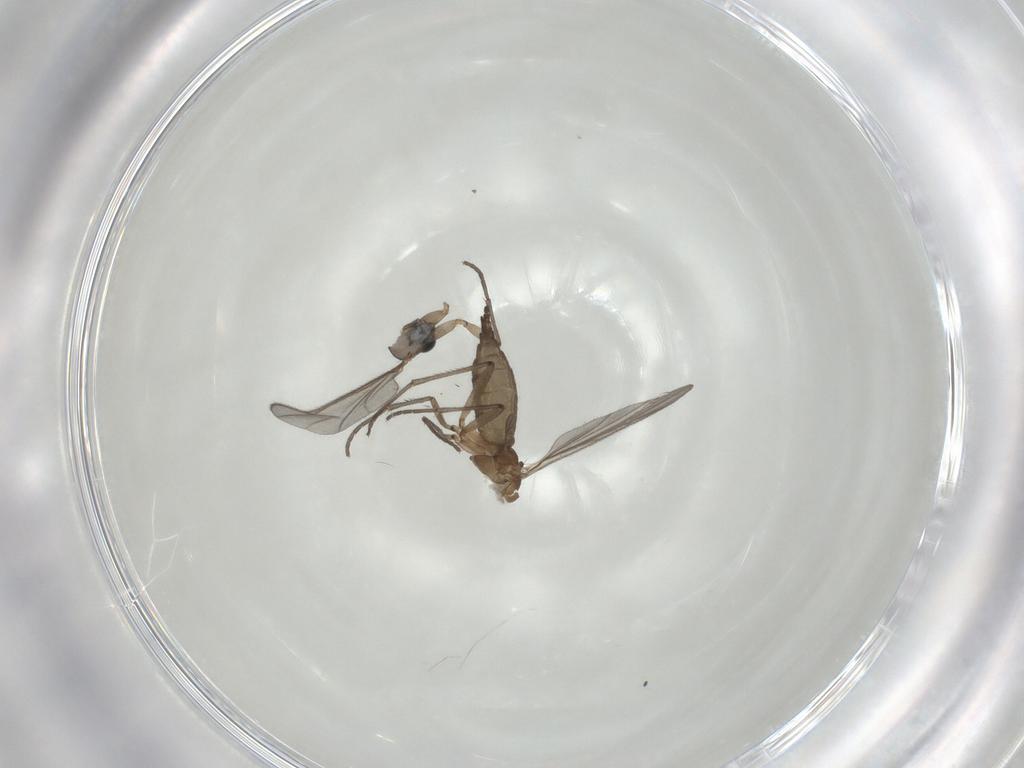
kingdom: Animalia
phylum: Arthropoda
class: Insecta
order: Diptera
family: Sciaridae
